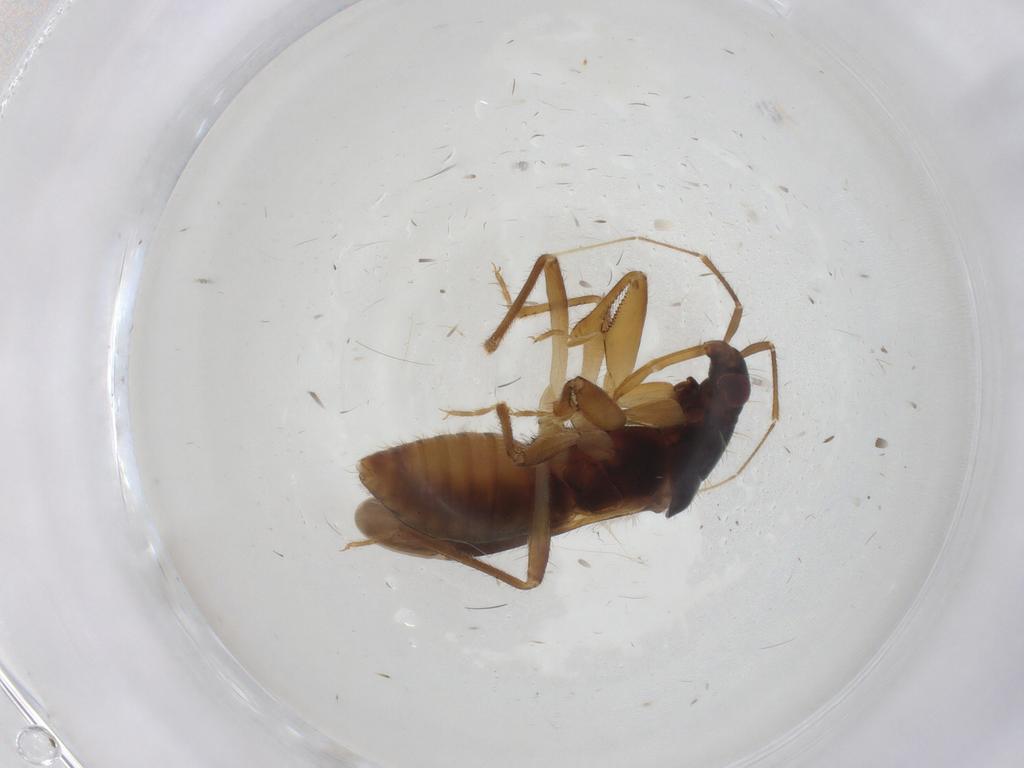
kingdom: Animalia
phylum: Arthropoda
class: Insecta
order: Hemiptera
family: Nabidae
